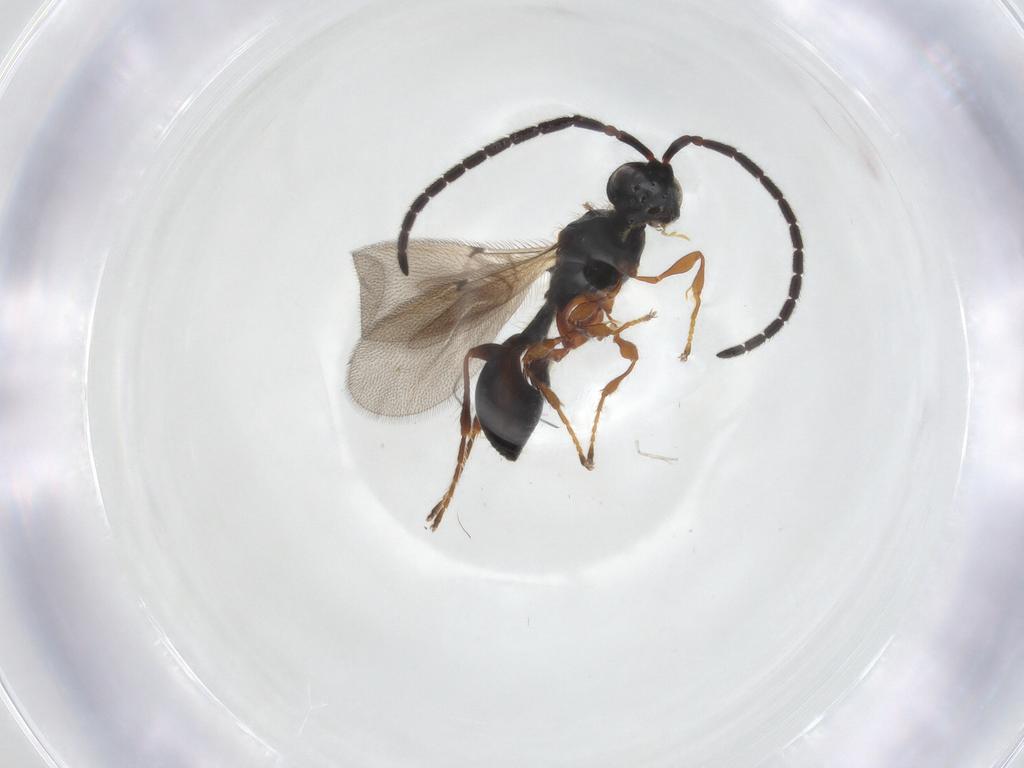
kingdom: Animalia
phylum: Arthropoda
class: Insecta
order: Hymenoptera
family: Diapriidae
